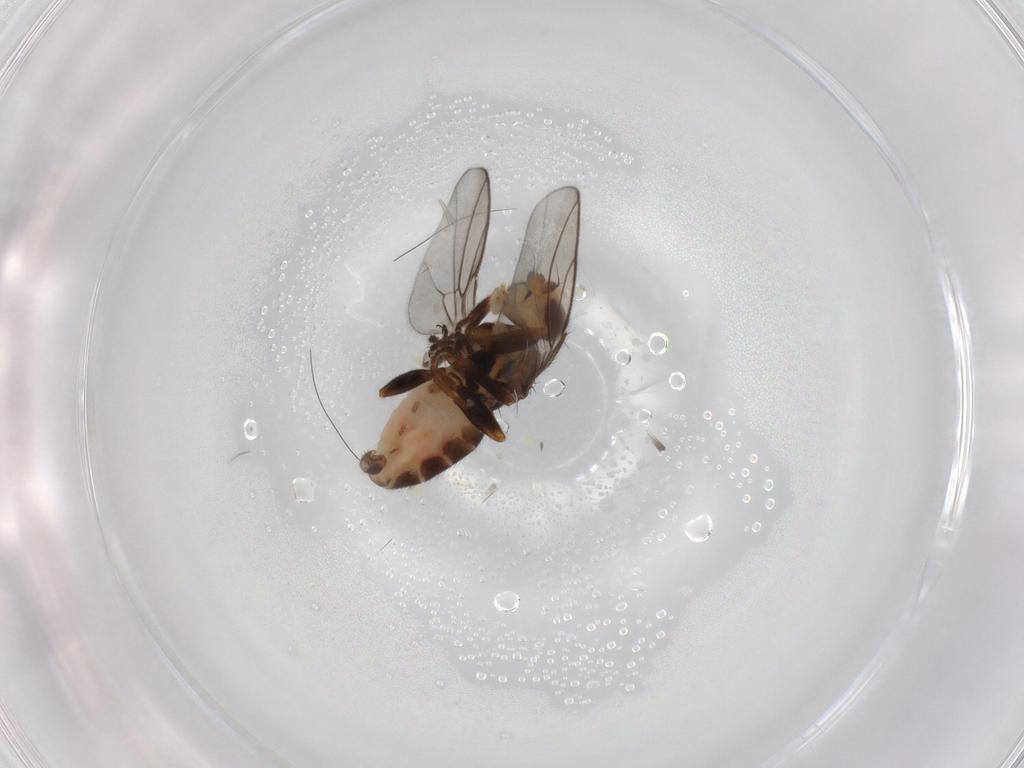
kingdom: Animalia
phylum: Arthropoda
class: Insecta
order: Diptera
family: Chloropidae
